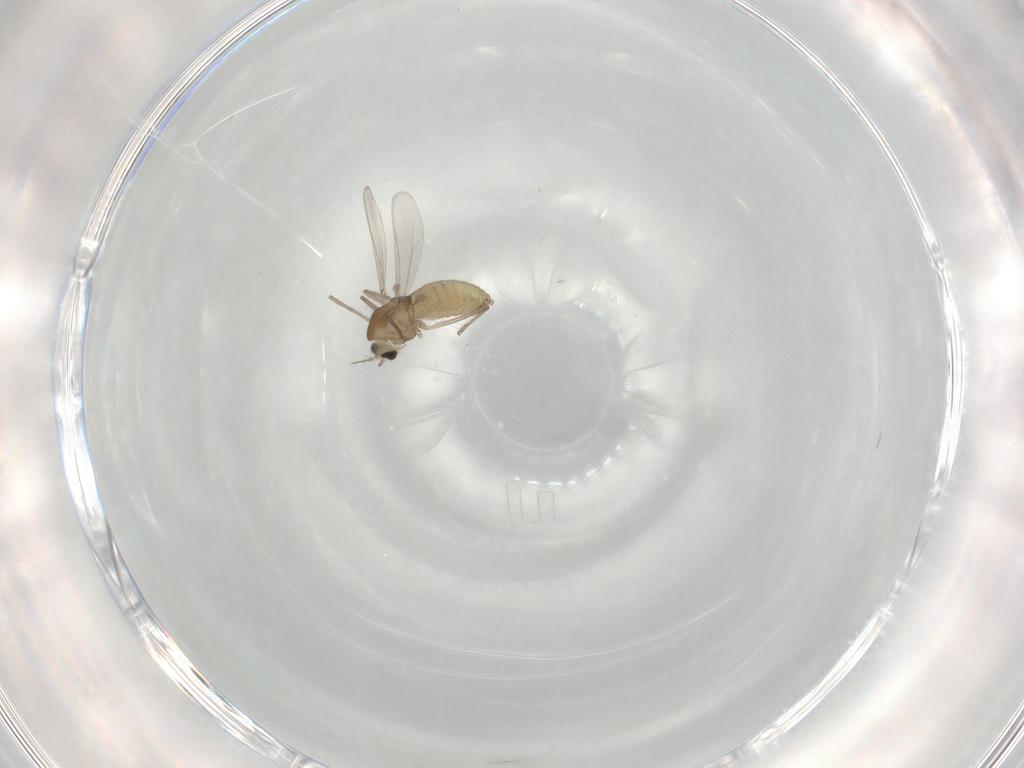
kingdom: Animalia
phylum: Arthropoda
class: Insecta
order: Diptera
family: Chironomidae
